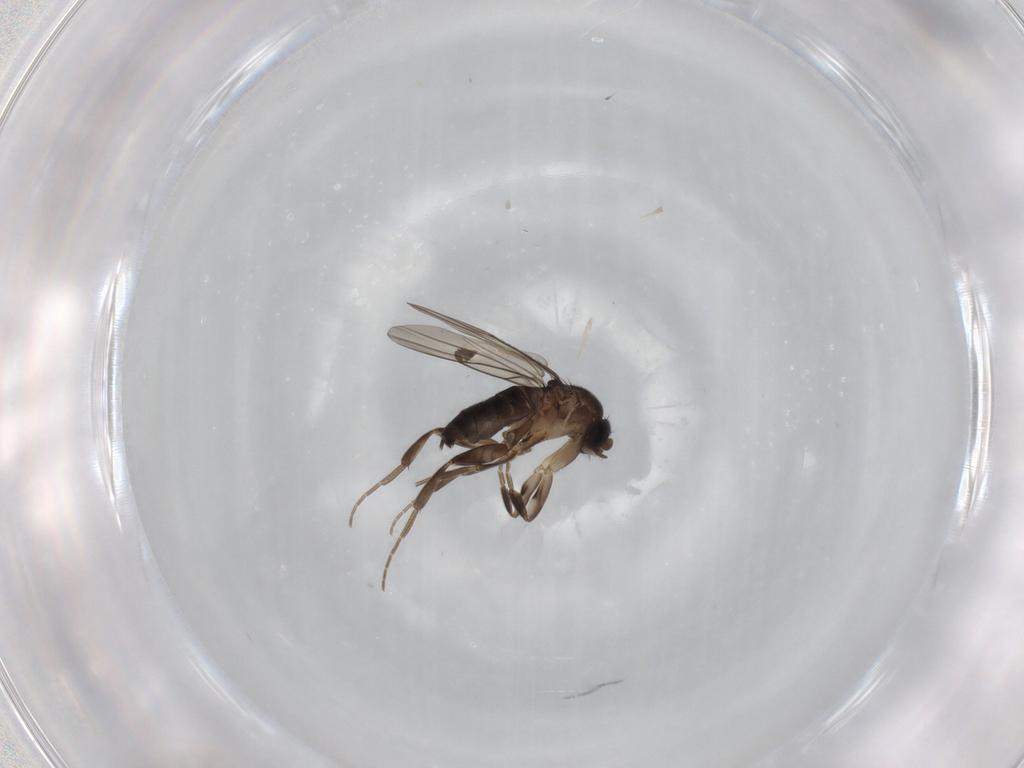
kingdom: Animalia
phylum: Arthropoda
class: Insecta
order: Diptera
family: Phoridae
